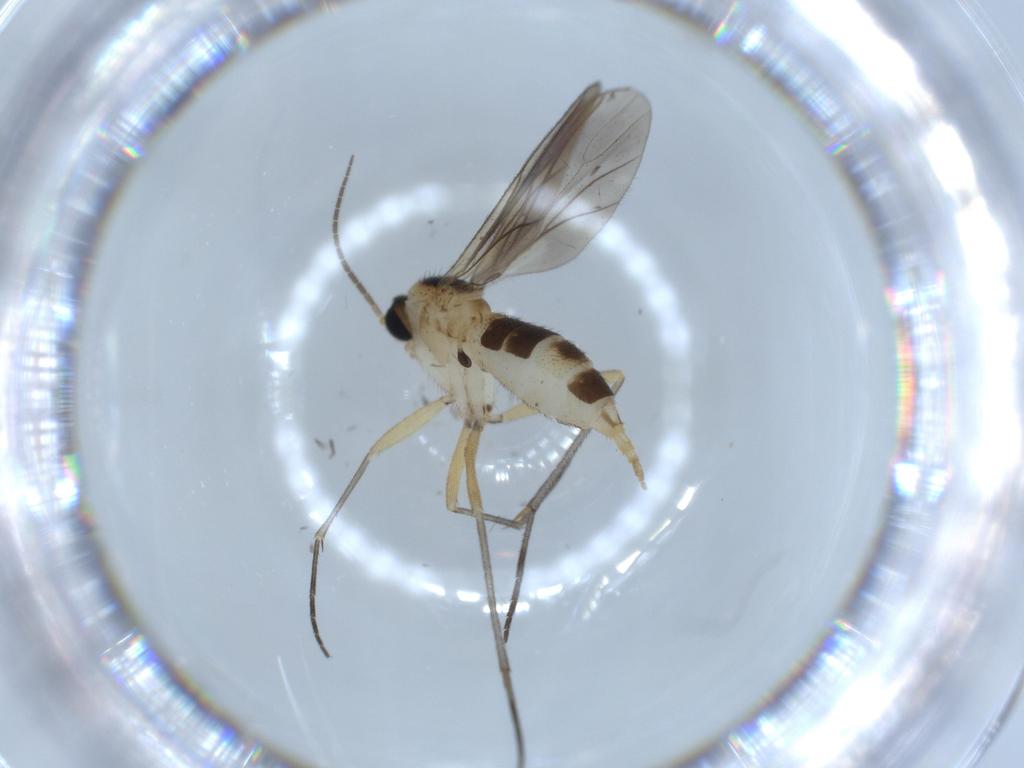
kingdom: Animalia
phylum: Arthropoda
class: Insecta
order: Diptera
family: Sciaridae
